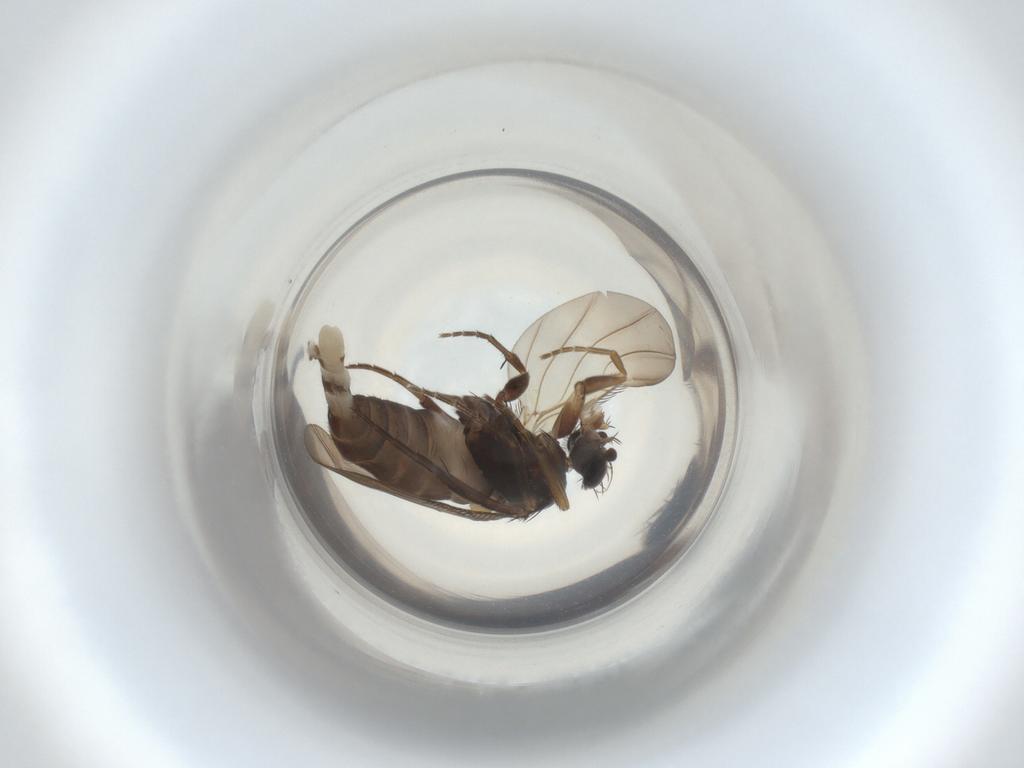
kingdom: Animalia
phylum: Arthropoda
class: Insecta
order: Diptera
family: Phoridae
